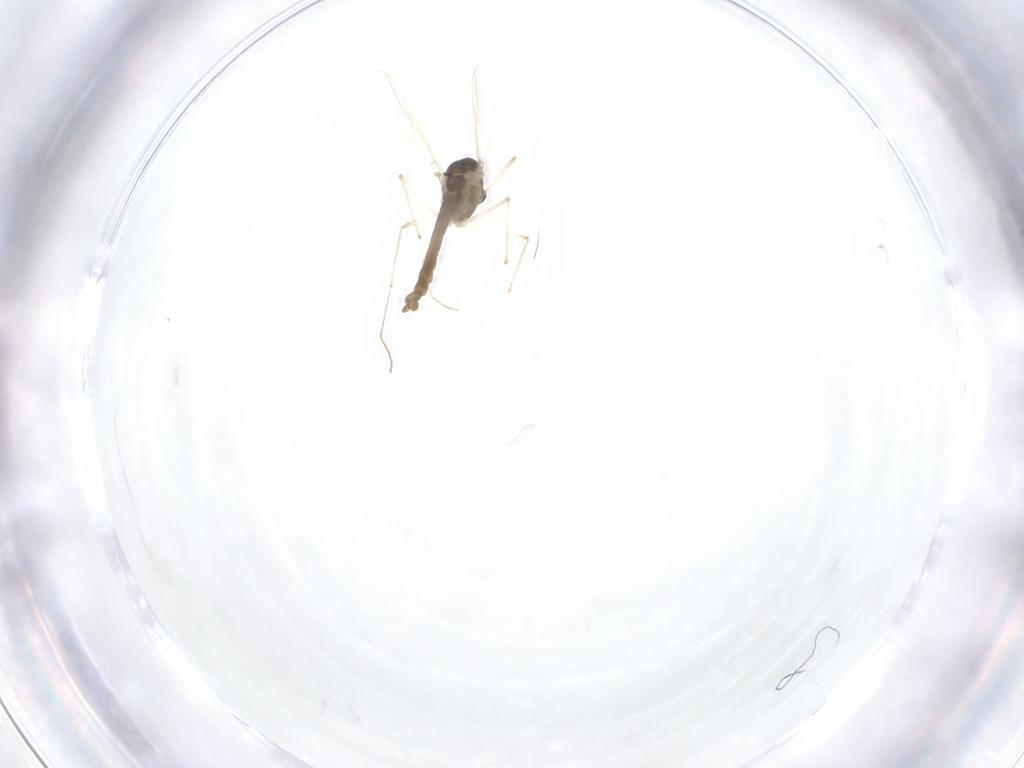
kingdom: Animalia
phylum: Arthropoda
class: Insecta
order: Diptera
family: Chironomidae
